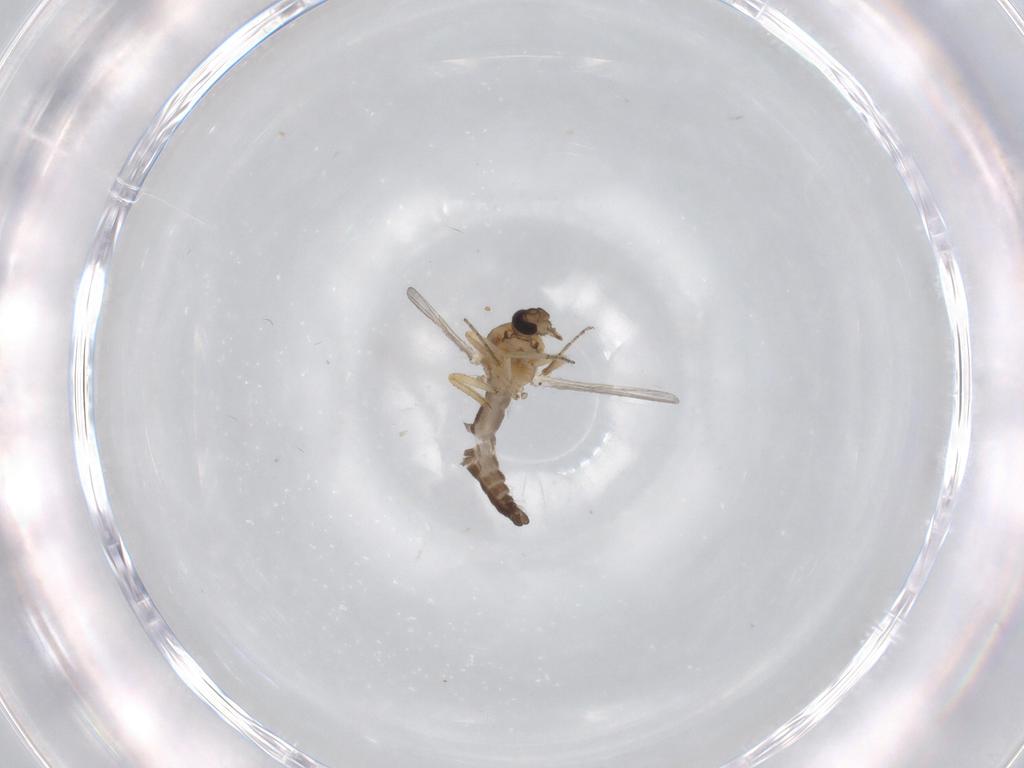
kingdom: Animalia
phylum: Arthropoda
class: Insecta
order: Diptera
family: Ceratopogonidae
